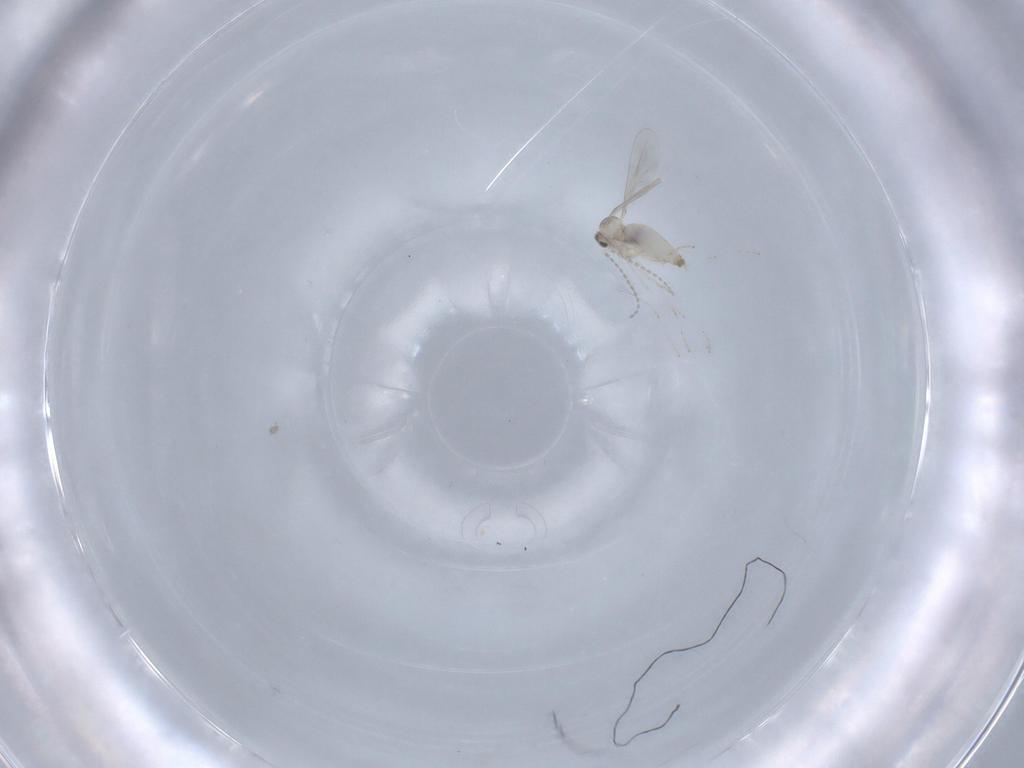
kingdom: Animalia
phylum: Arthropoda
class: Insecta
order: Diptera
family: Cecidomyiidae
